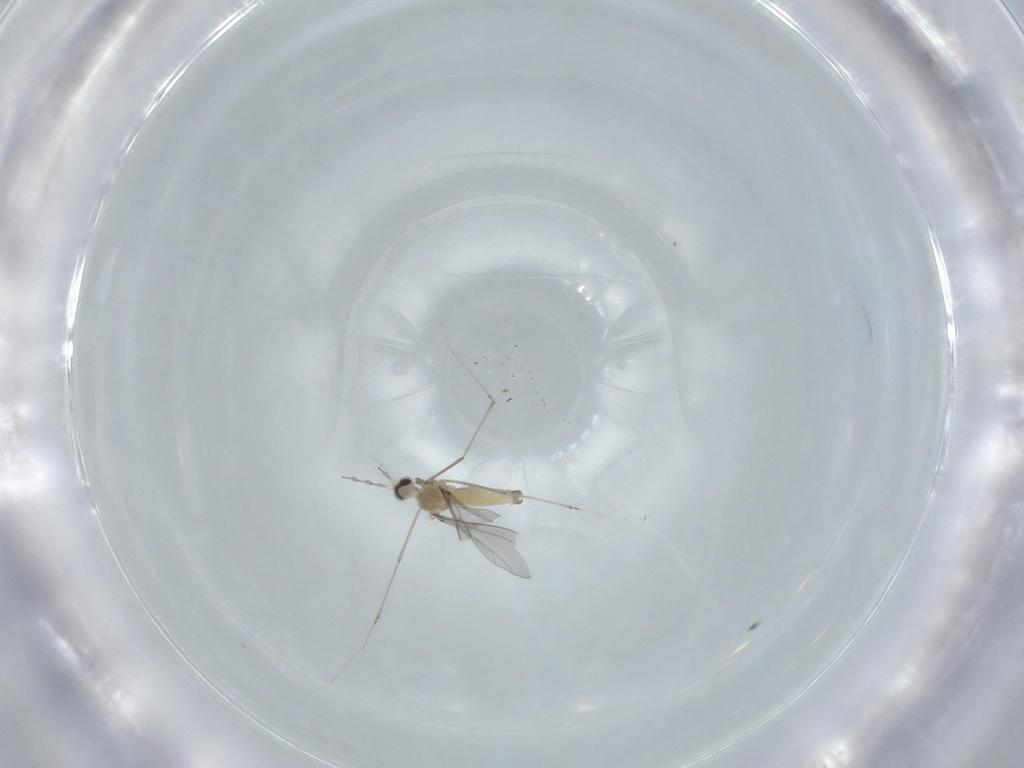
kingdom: Animalia
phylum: Arthropoda
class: Insecta
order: Diptera
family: Cecidomyiidae
